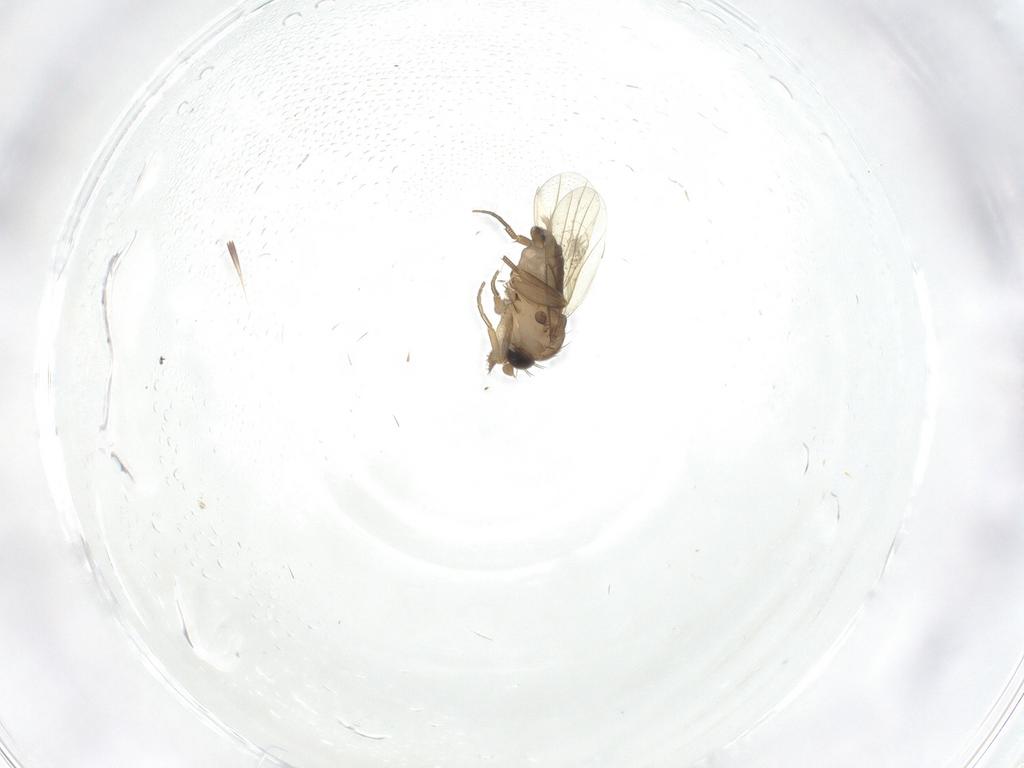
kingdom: Animalia
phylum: Arthropoda
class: Insecta
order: Diptera
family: Phoridae
